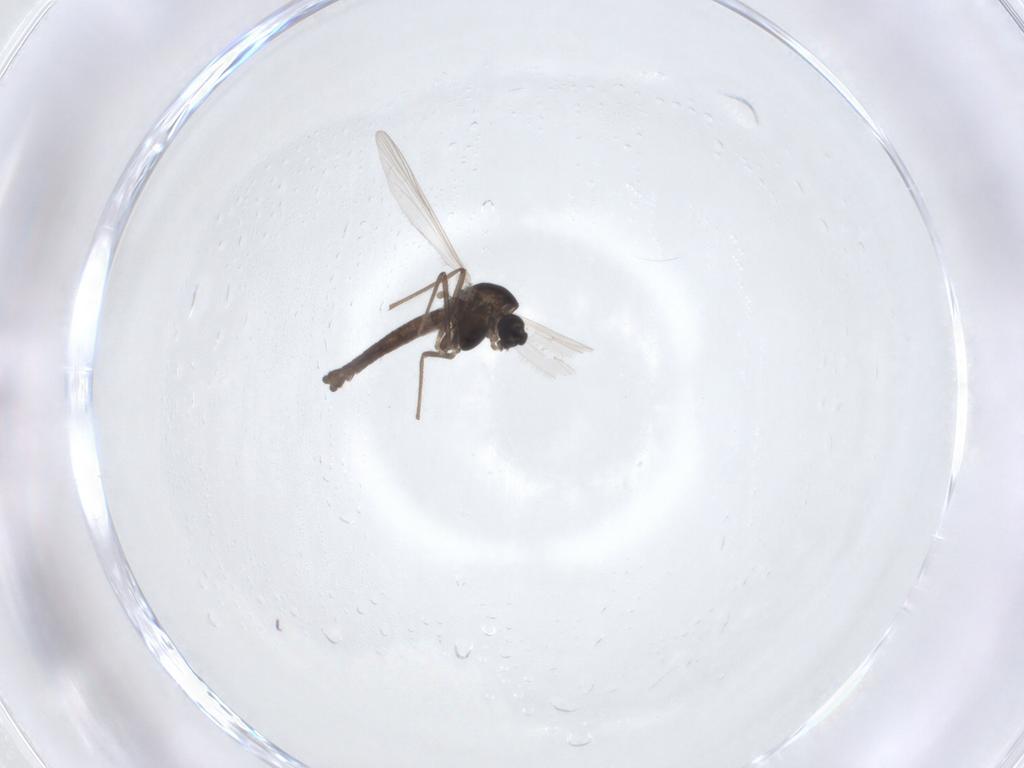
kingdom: Animalia
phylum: Arthropoda
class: Insecta
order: Diptera
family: Chironomidae
